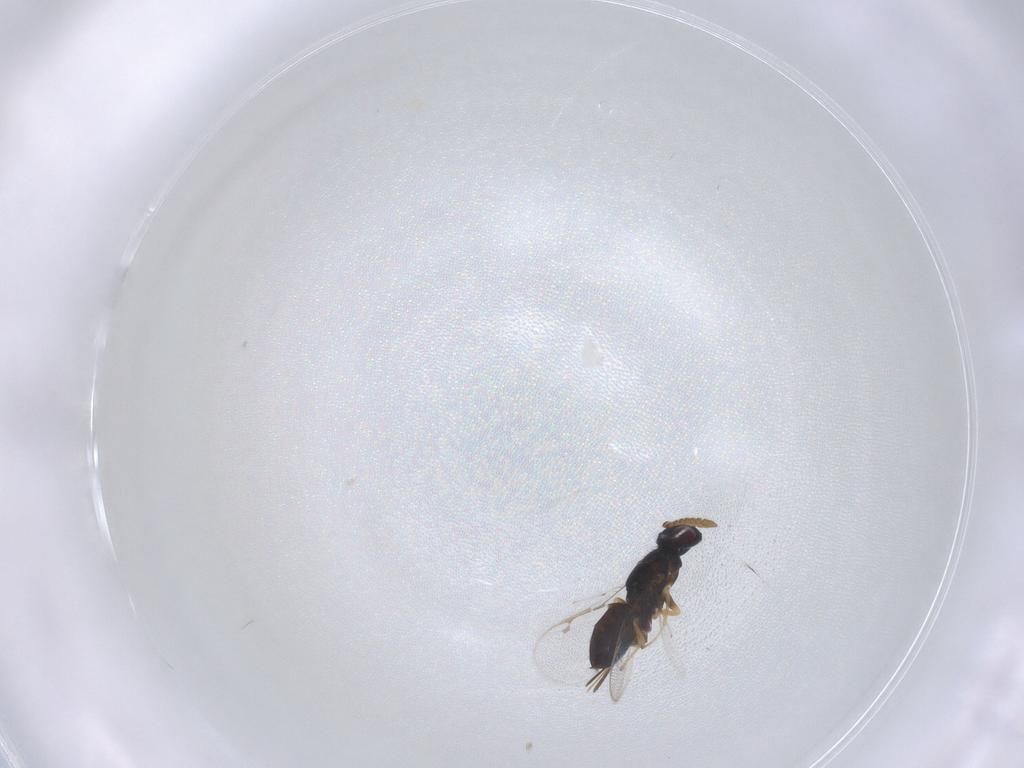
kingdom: Animalia
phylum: Arthropoda
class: Insecta
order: Hymenoptera
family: Pteromalidae
